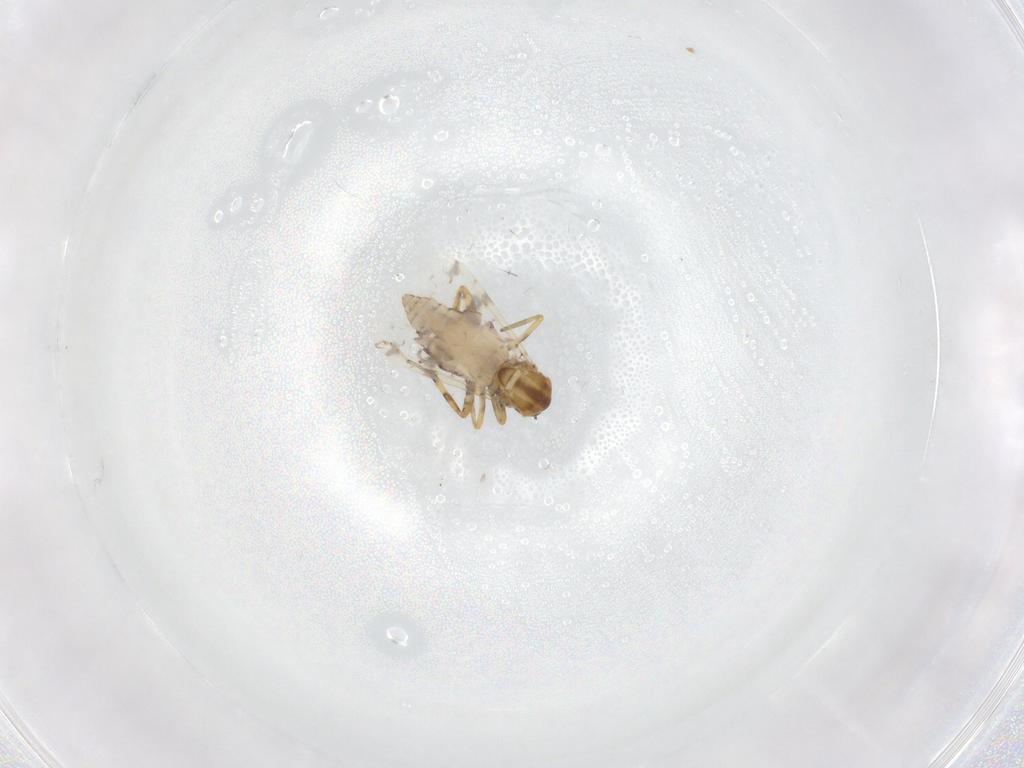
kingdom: Animalia
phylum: Arthropoda
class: Insecta
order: Diptera
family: Ceratopogonidae
